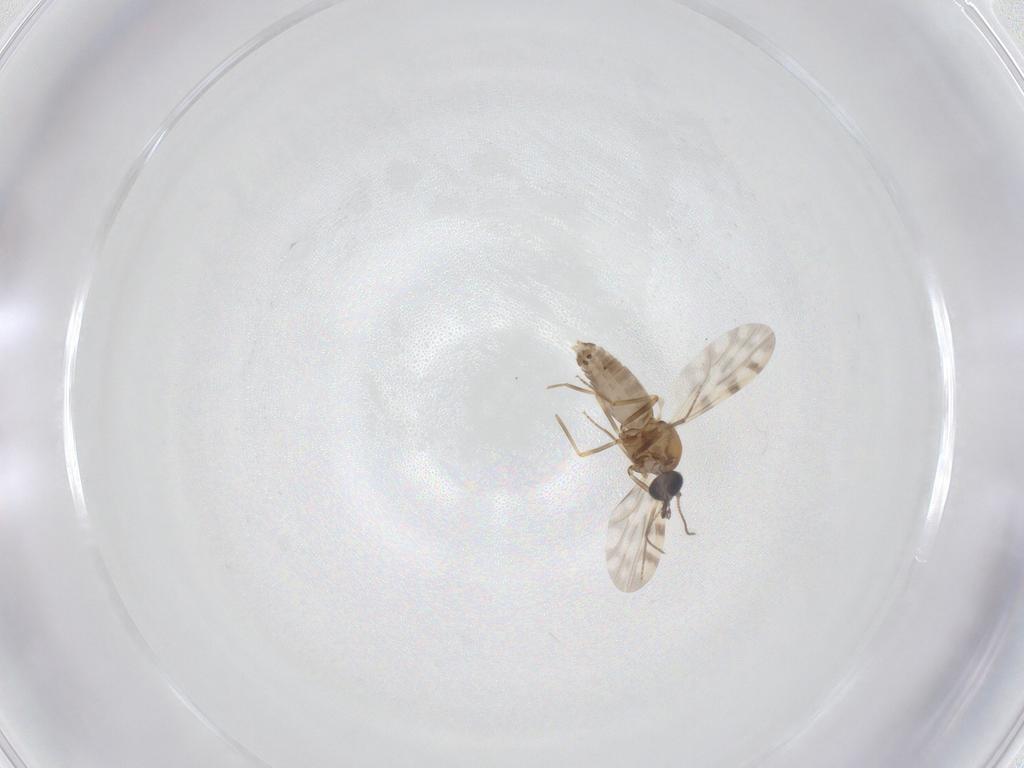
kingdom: Animalia
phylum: Arthropoda
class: Insecta
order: Diptera
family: Ceratopogonidae
